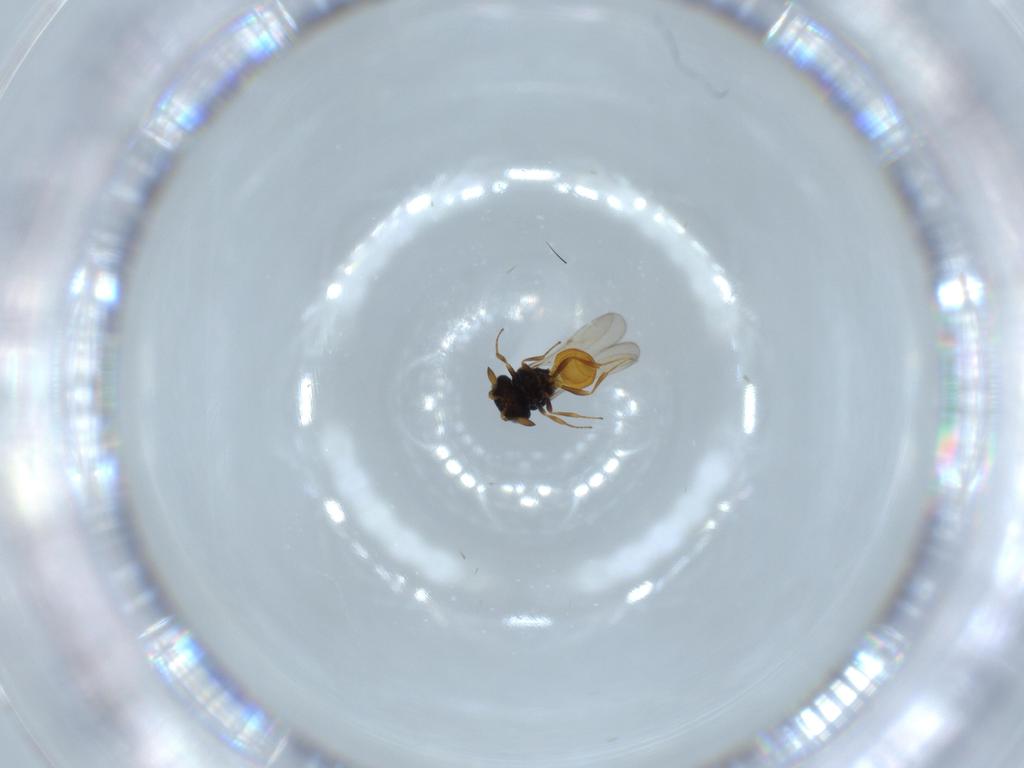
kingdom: Animalia
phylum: Arthropoda
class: Insecta
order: Hymenoptera
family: Scelionidae
